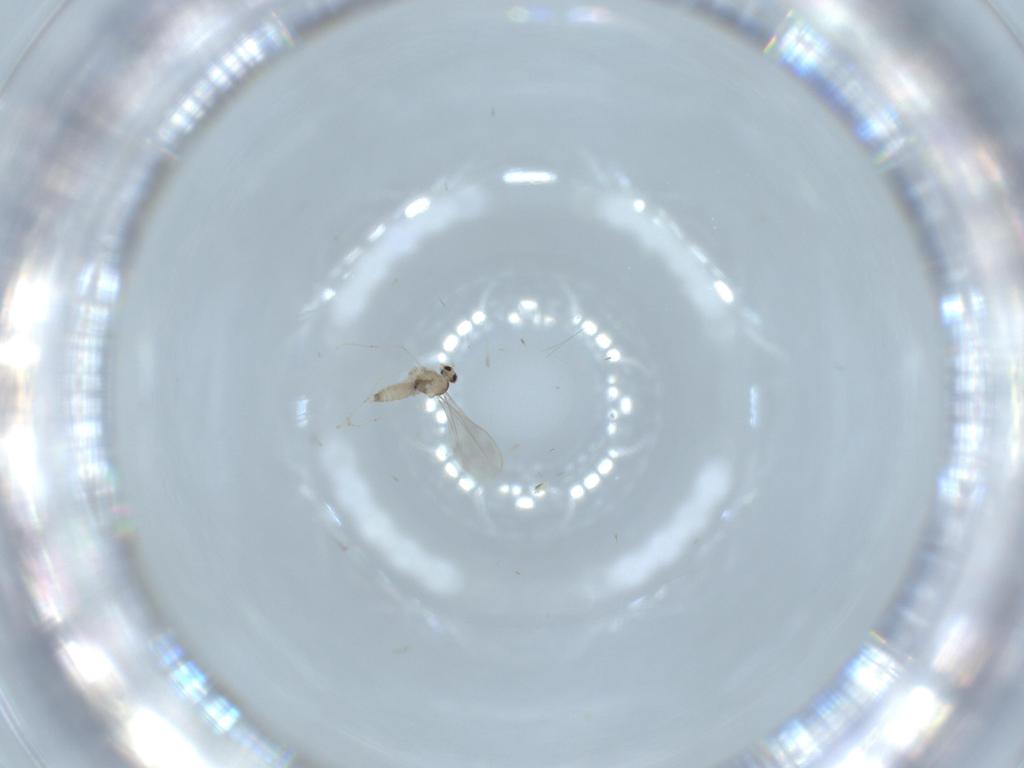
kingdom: Animalia
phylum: Arthropoda
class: Insecta
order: Diptera
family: Cecidomyiidae
